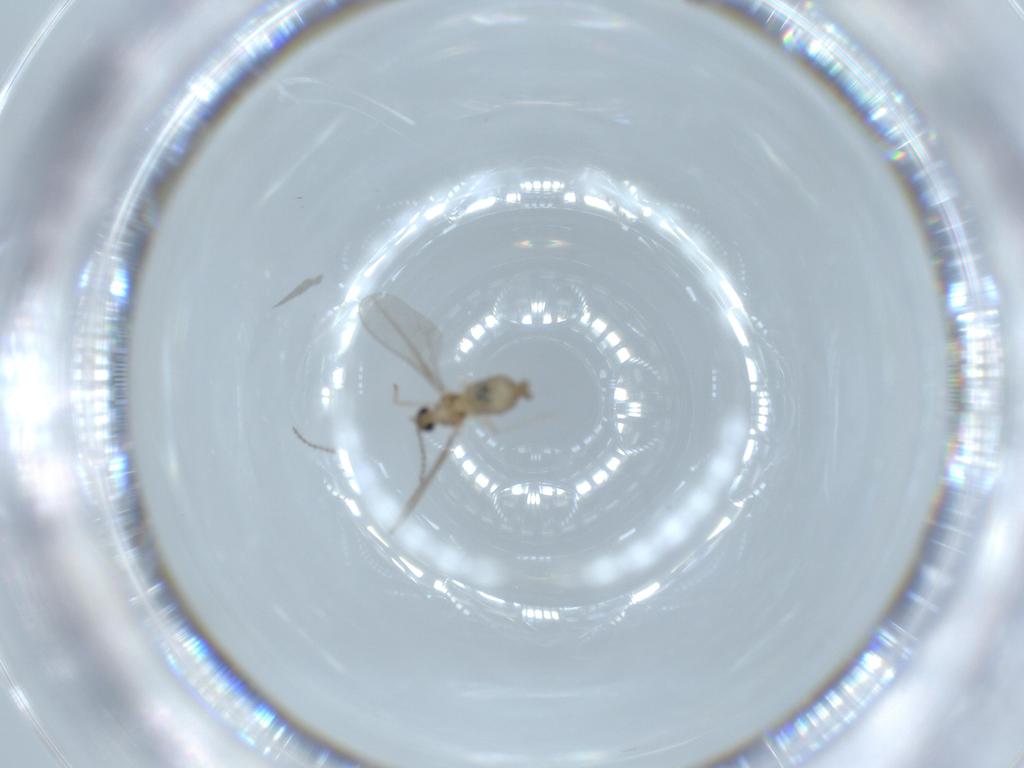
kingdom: Animalia
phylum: Arthropoda
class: Insecta
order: Diptera
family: Cecidomyiidae
